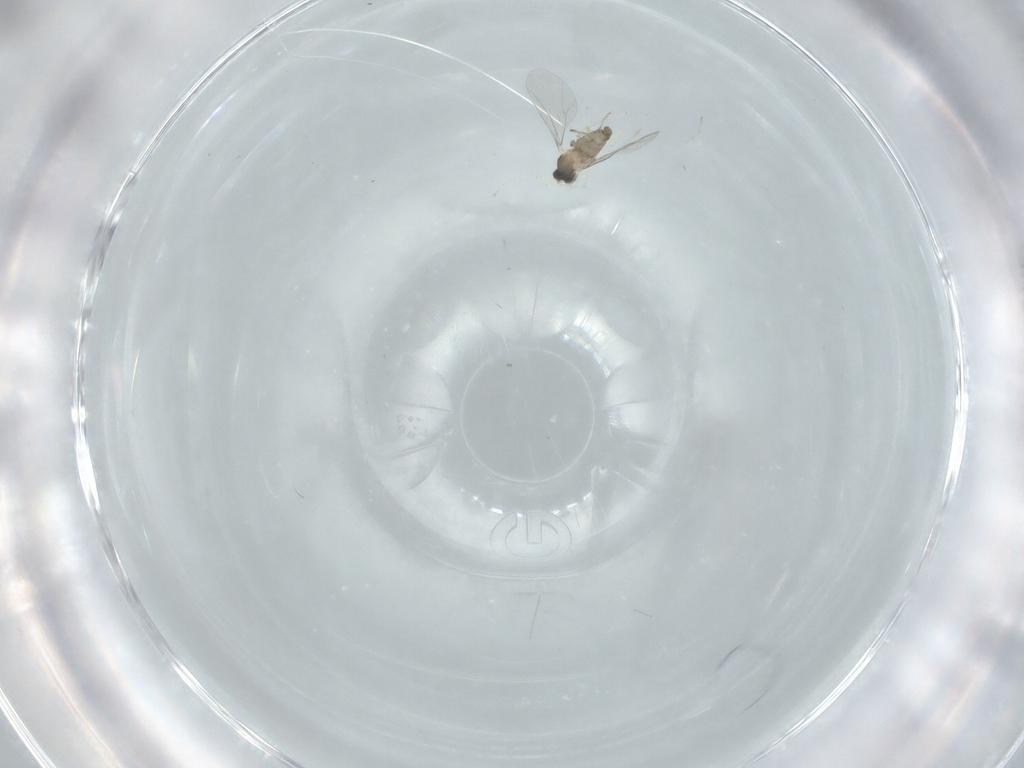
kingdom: Animalia
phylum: Arthropoda
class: Insecta
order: Diptera
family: Cecidomyiidae
